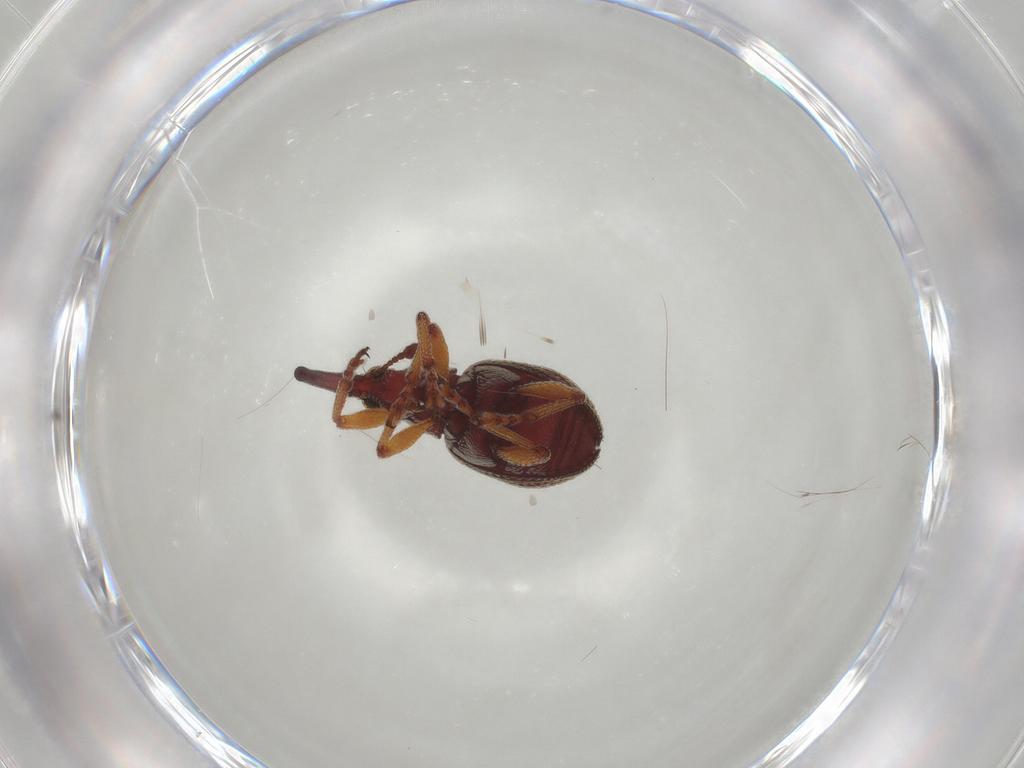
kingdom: Animalia
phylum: Arthropoda
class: Insecta
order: Coleoptera
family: Brentidae
